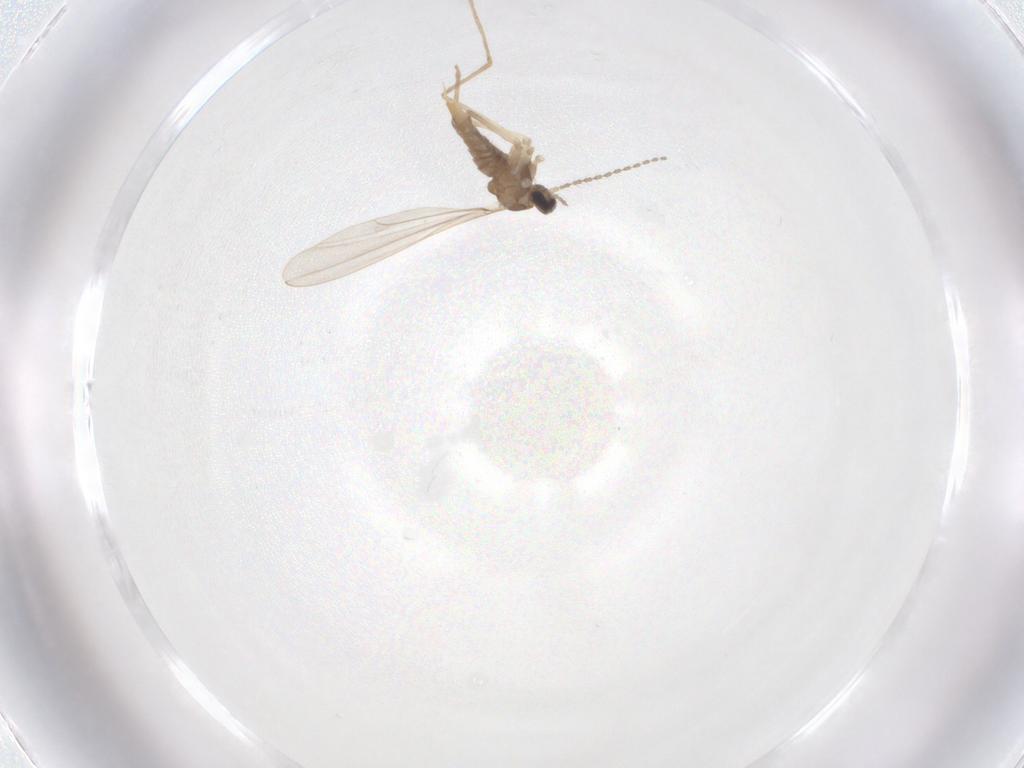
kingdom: Animalia
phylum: Arthropoda
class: Insecta
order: Diptera
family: Cecidomyiidae
